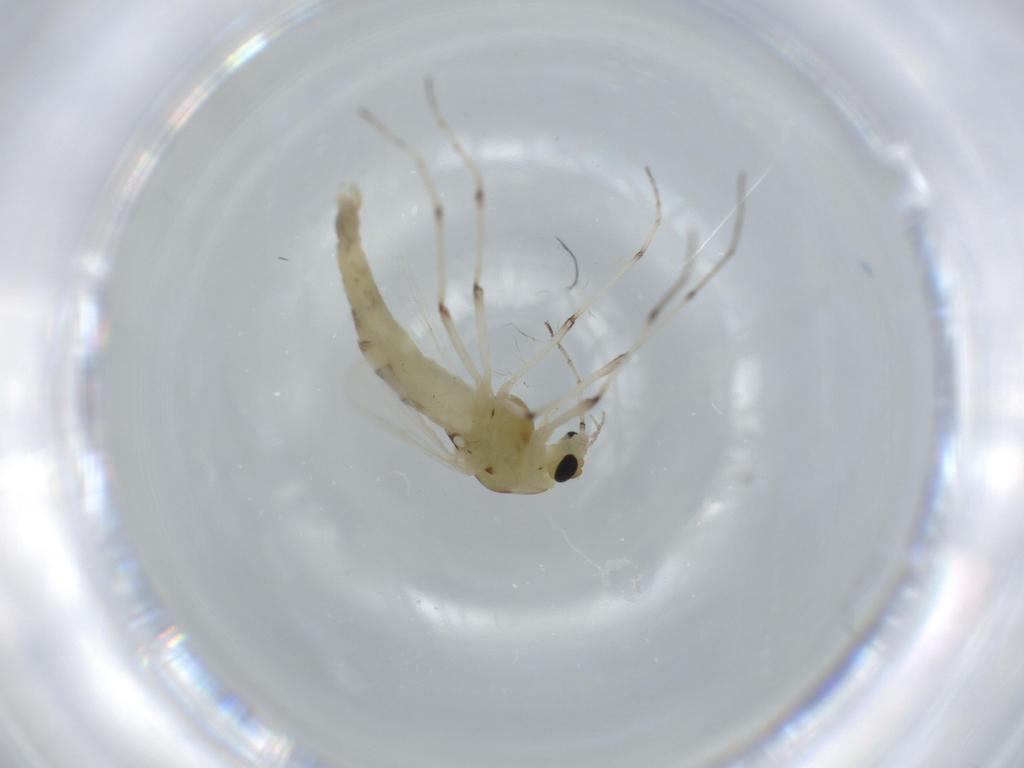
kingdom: Animalia
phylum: Arthropoda
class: Insecta
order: Diptera
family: Chironomidae
